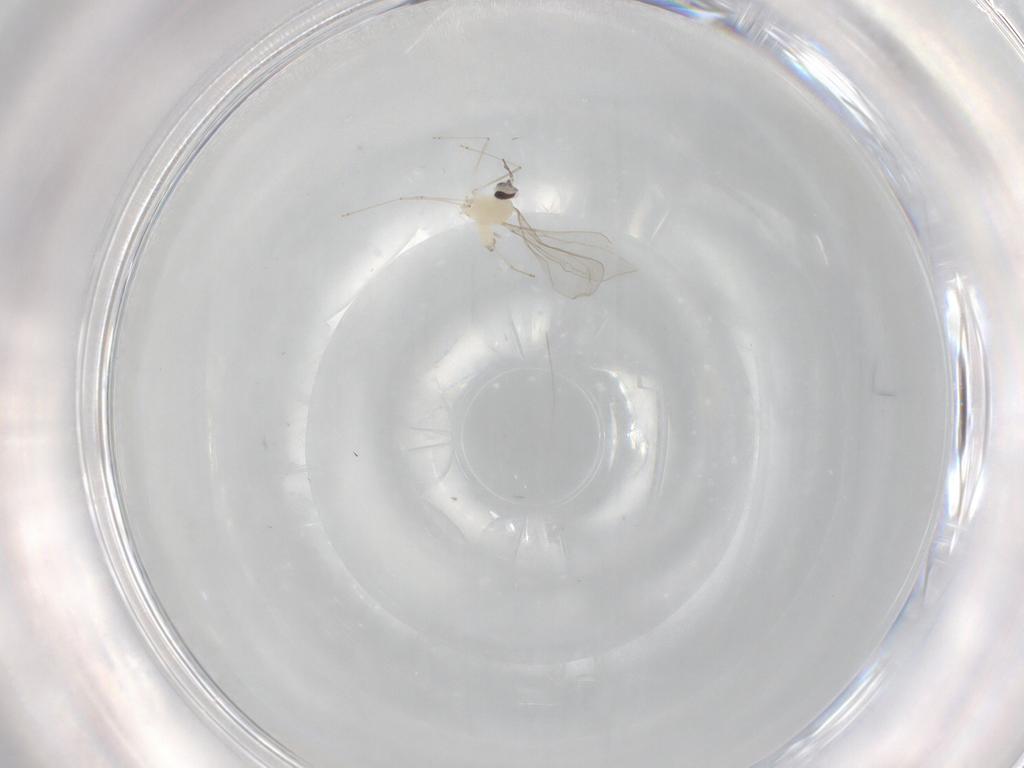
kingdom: Animalia
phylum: Arthropoda
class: Insecta
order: Diptera
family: Cecidomyiidae
